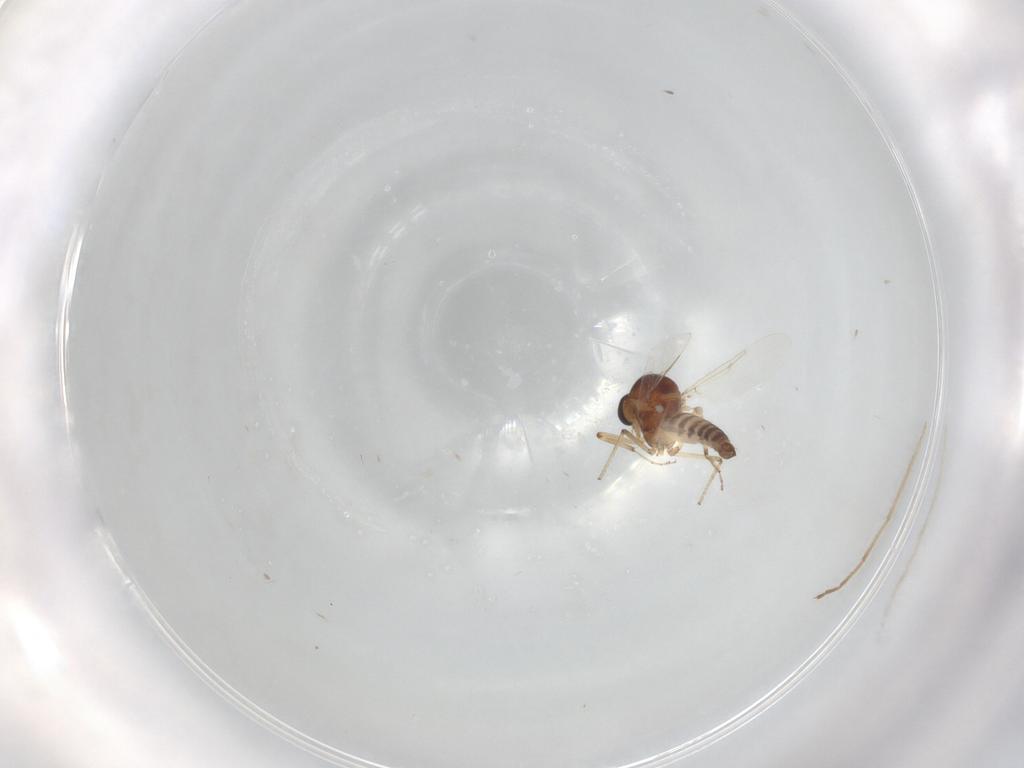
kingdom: Animalia
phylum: Arthropoda
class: Insecta
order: Diptera
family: Ceratopogonidae
